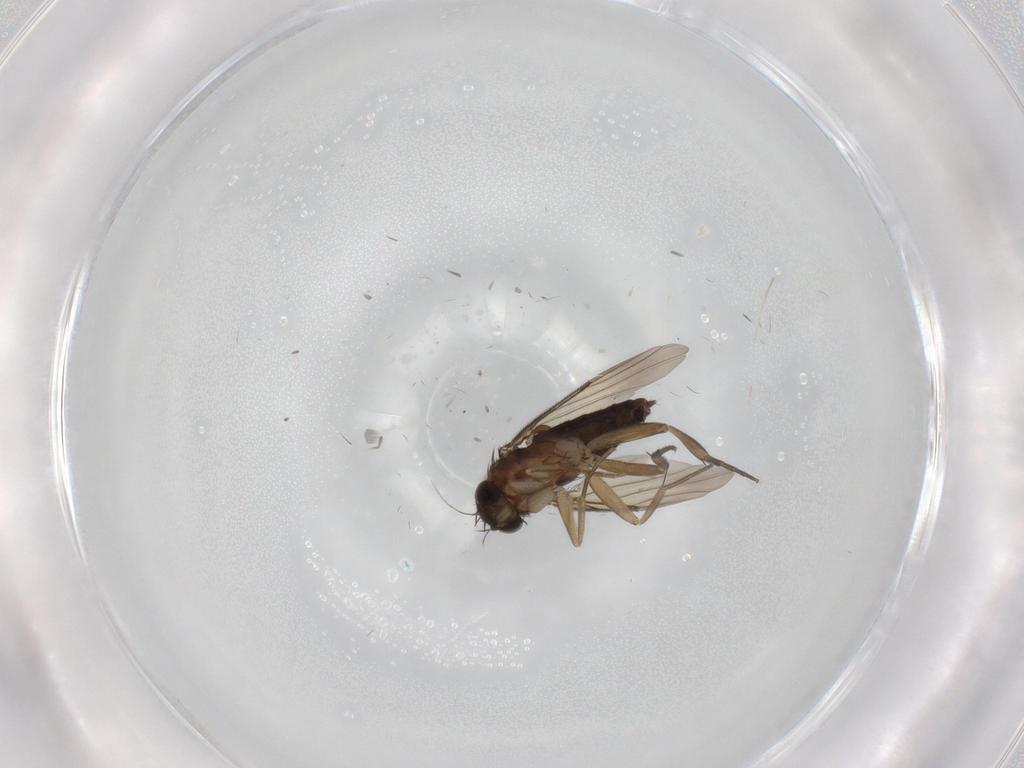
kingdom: Animalia
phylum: Arthropoda
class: Insecta
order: Diptera
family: Phoridae
